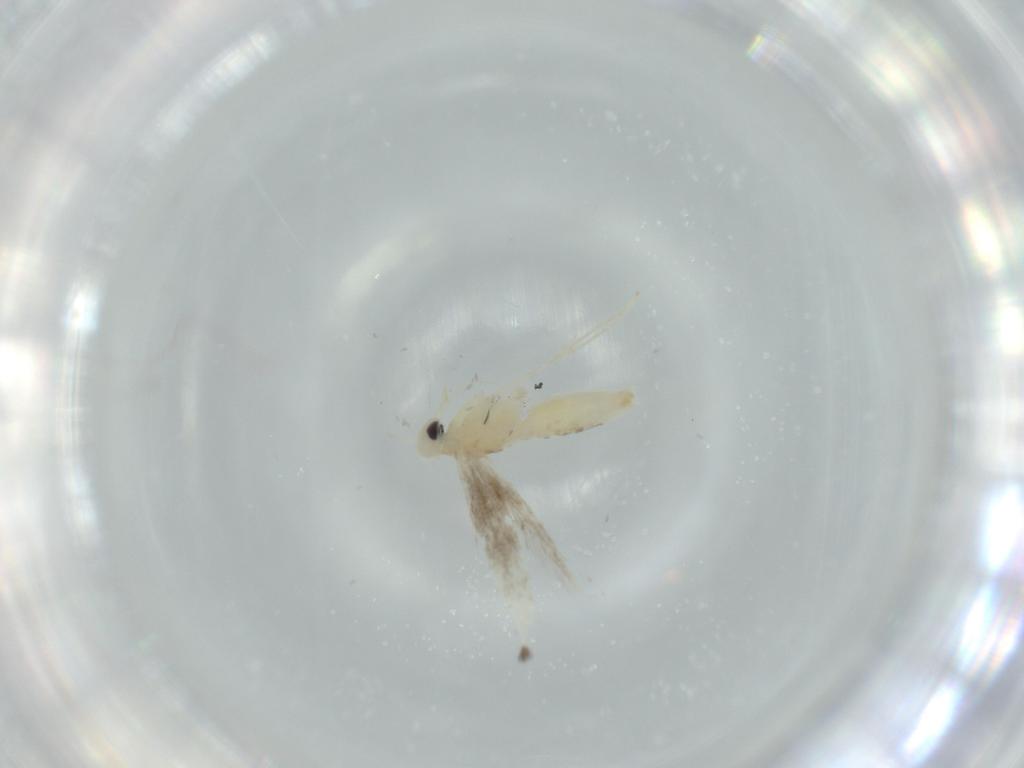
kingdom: Animalia
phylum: Arthropoda
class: Insecta
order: Lepidoptera
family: Gracillariidae
